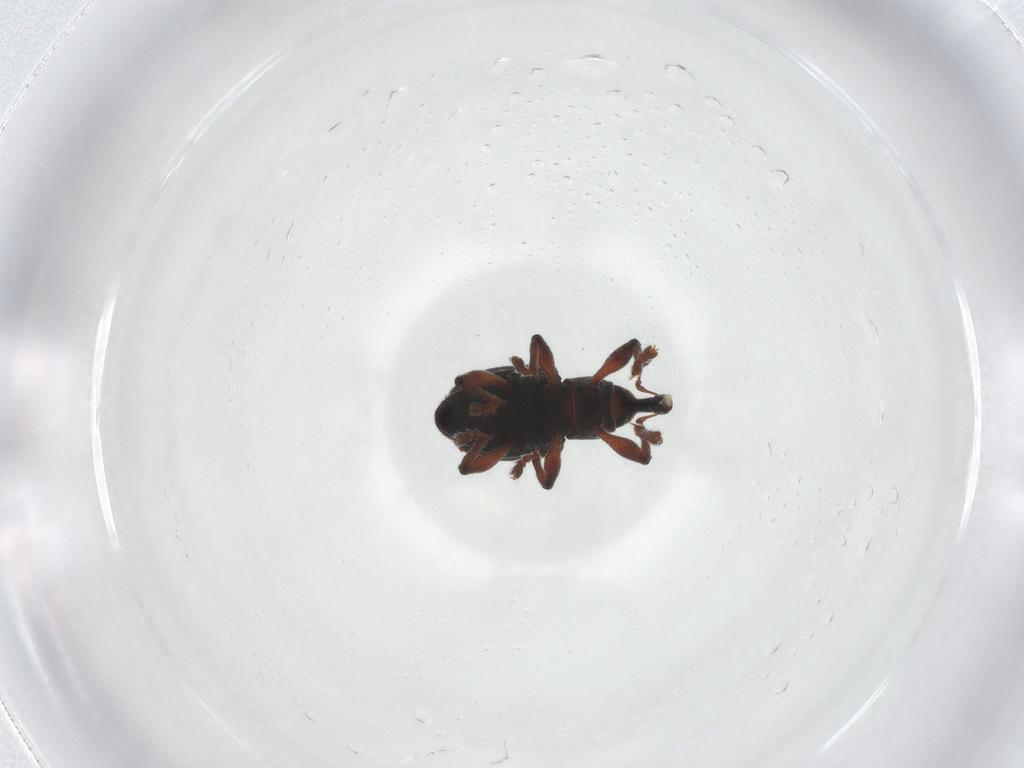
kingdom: Animalia
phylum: Arthropoda
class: Insecta
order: Coleoptera
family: Curculionidae
